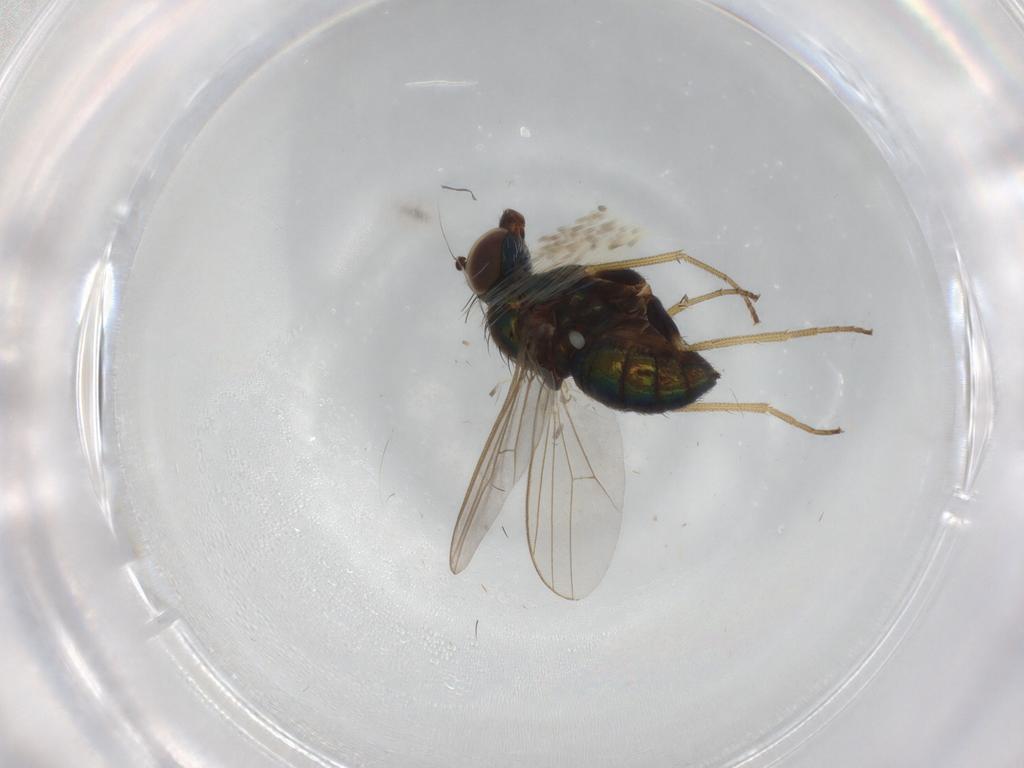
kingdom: Animalia
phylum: Arthropoda
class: Insecta
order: Diptera
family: Dolichopodidae
